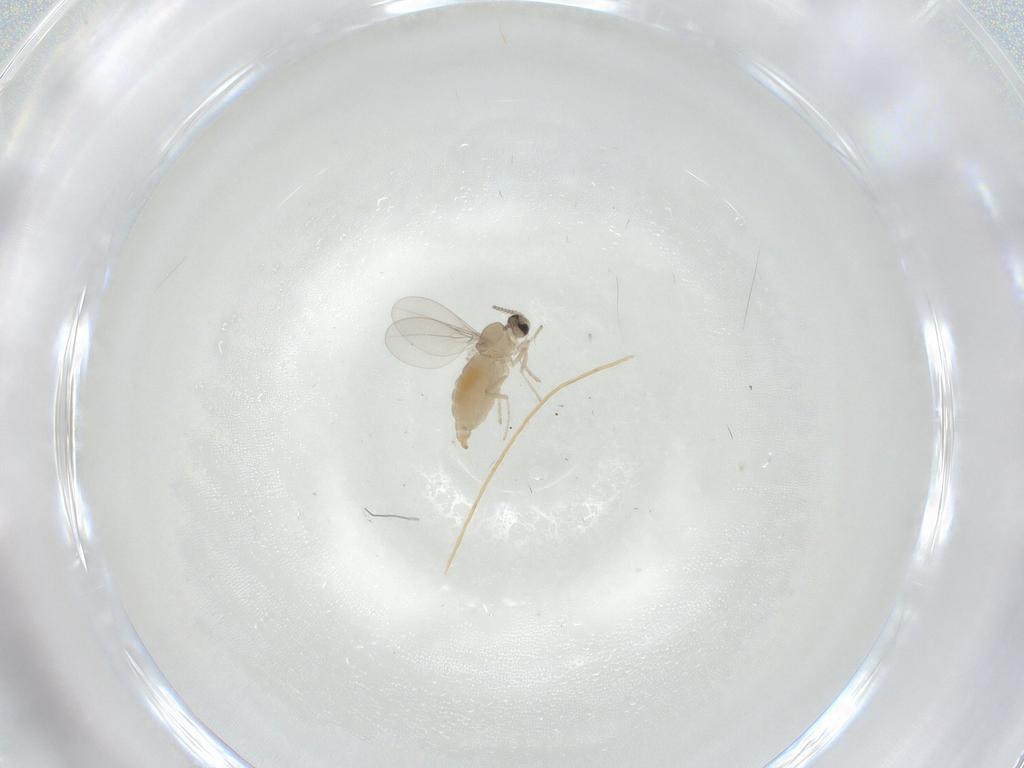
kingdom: Animalia
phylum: Arthropoda
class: Insecta
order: Diptera
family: Cecidomyiidae
